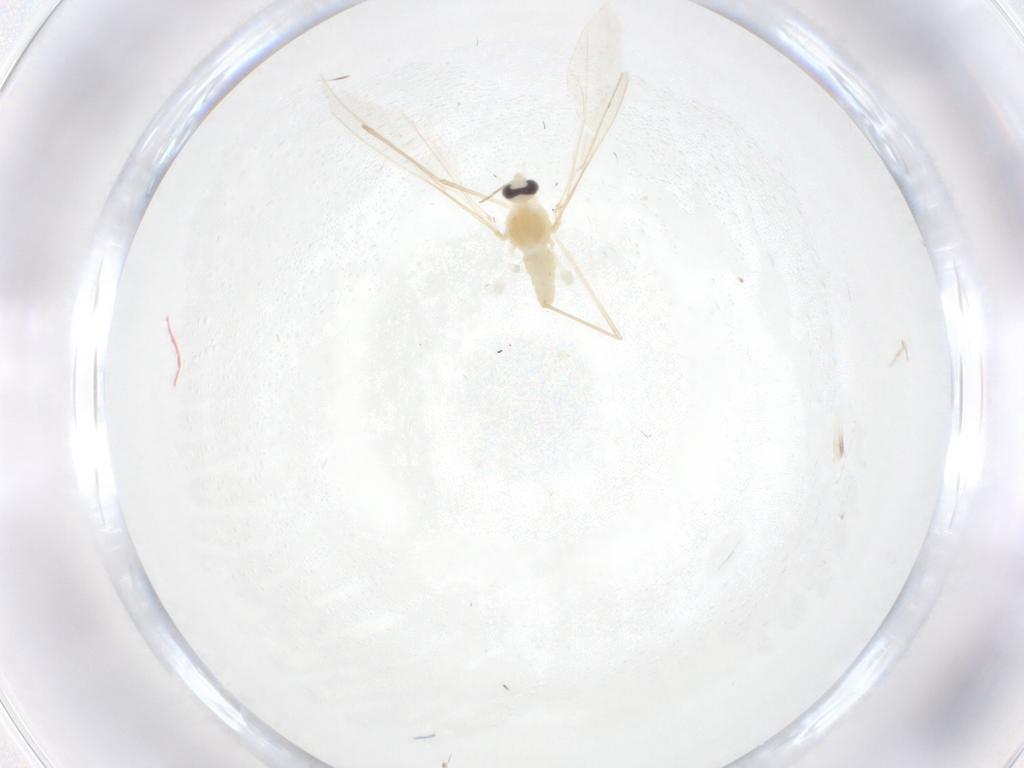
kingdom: Animalia
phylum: Arthropoda
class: Insecta
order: Diptera
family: Cecidomyiidae
